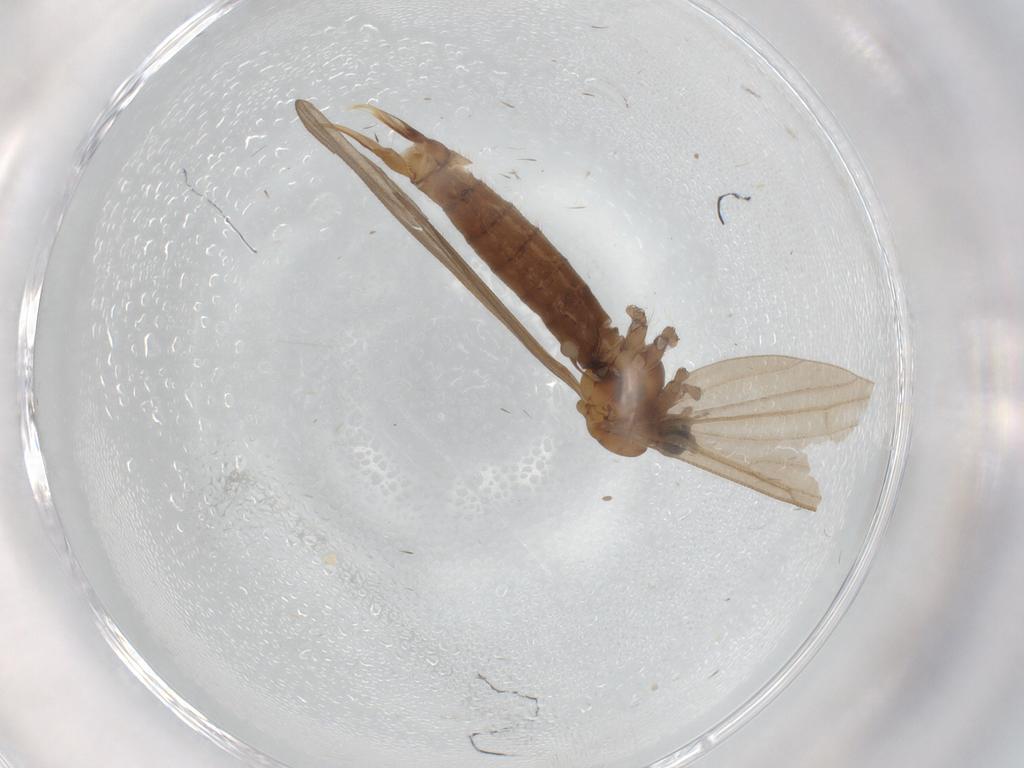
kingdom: Animalia
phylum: Arthropoda
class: Insecta
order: Diptera
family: Limoniidae
